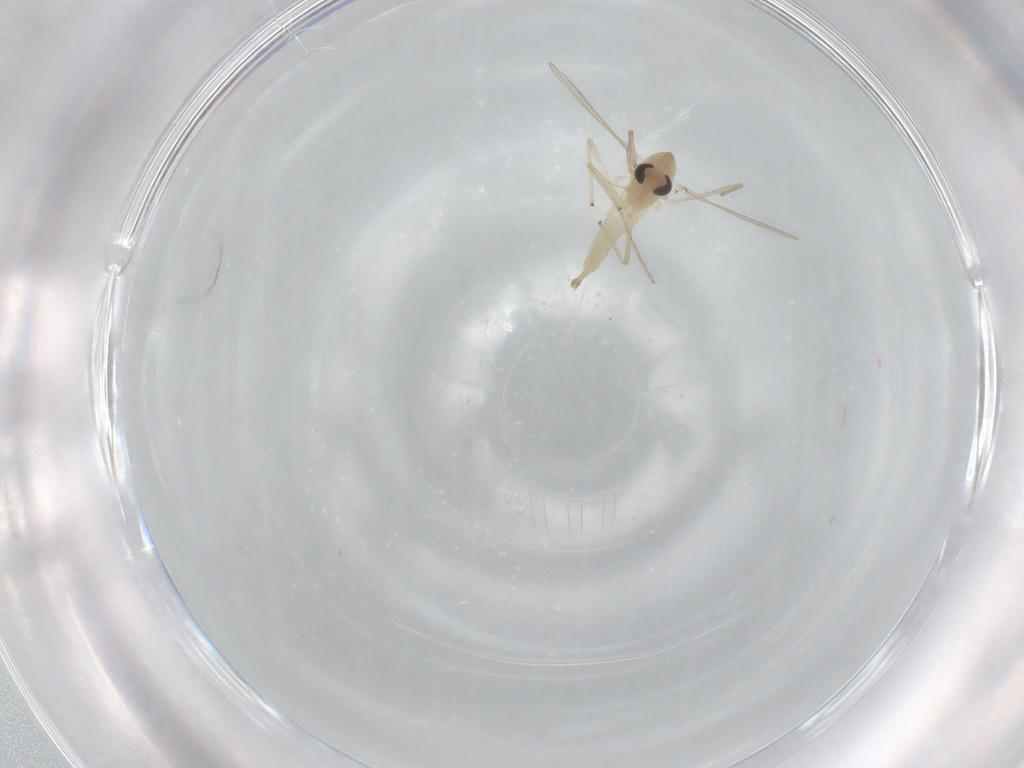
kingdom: Animalia
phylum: Arthropoda
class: Insecta
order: Diptera
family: Chironomidae
